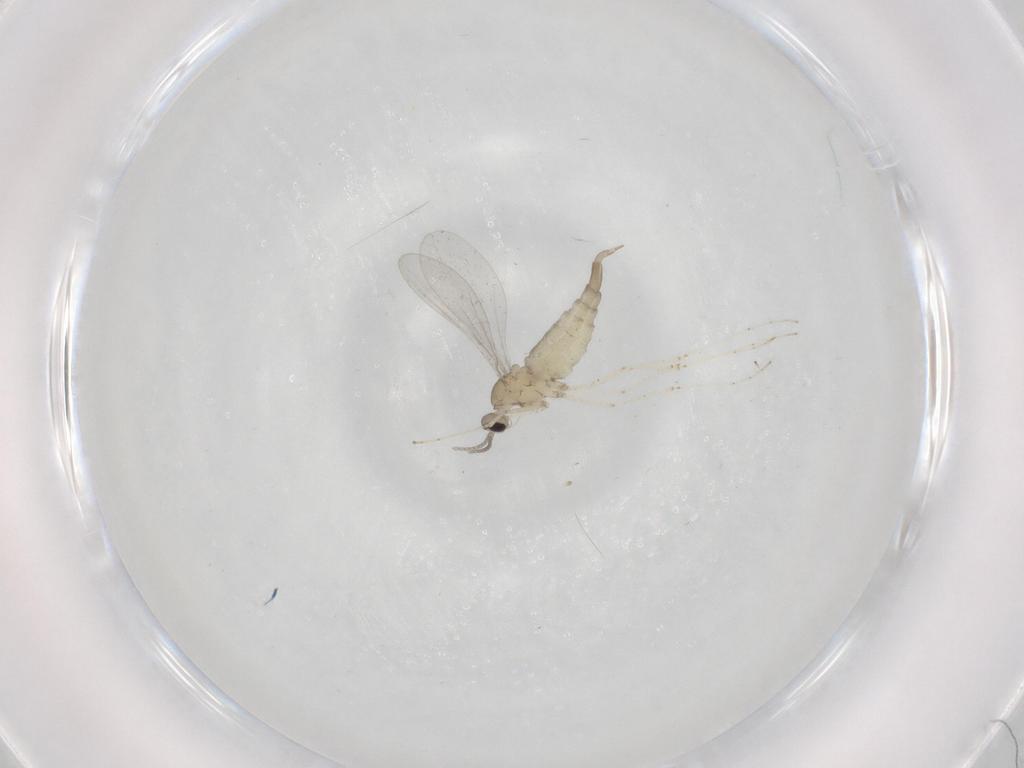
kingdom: Animalia
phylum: Arthropoda
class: Insecta
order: Diptera
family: Cecidomyiidae
